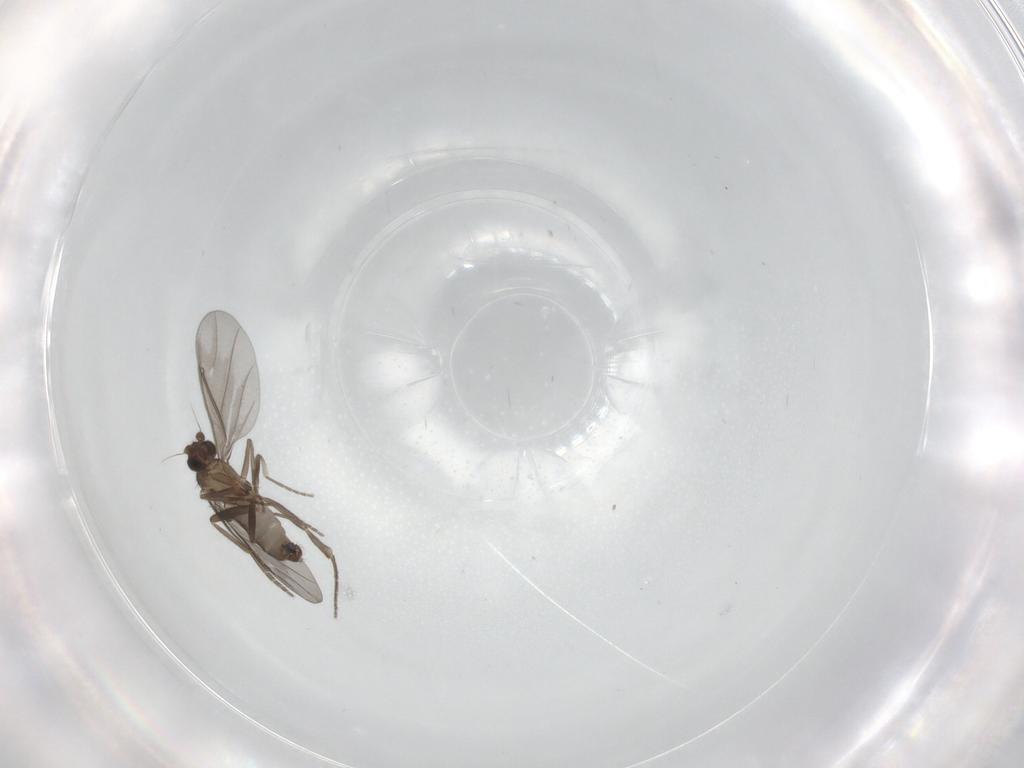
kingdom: Animalia
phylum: Arthropoda
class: Insecta
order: Diptera
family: Phoridae
